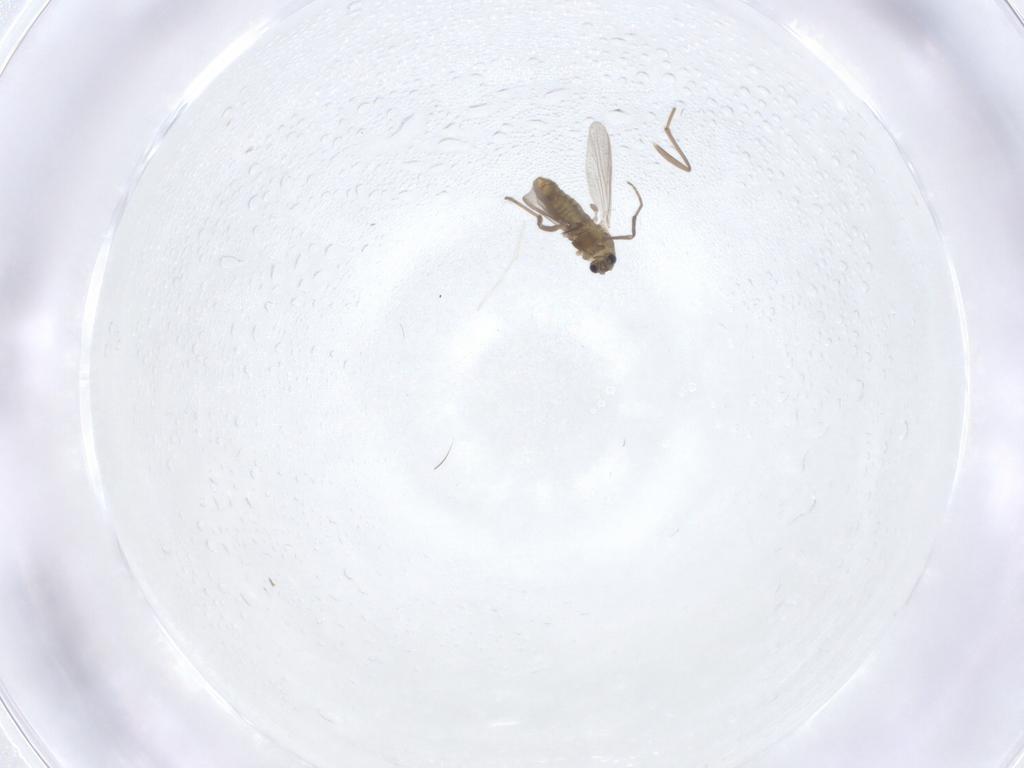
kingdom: Animalia
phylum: Arthropoda
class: Insecta
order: Diptera
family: Chironomidae
